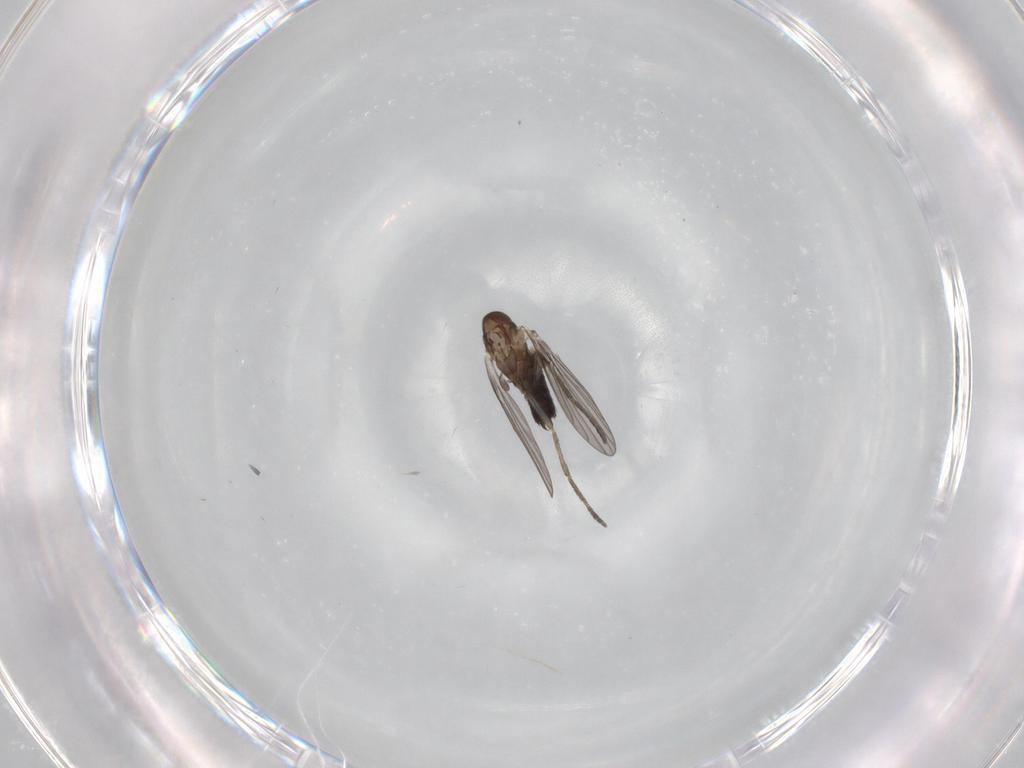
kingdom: Animalia
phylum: Arthropoda
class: Insecta
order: Diptera
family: Sciaridae
